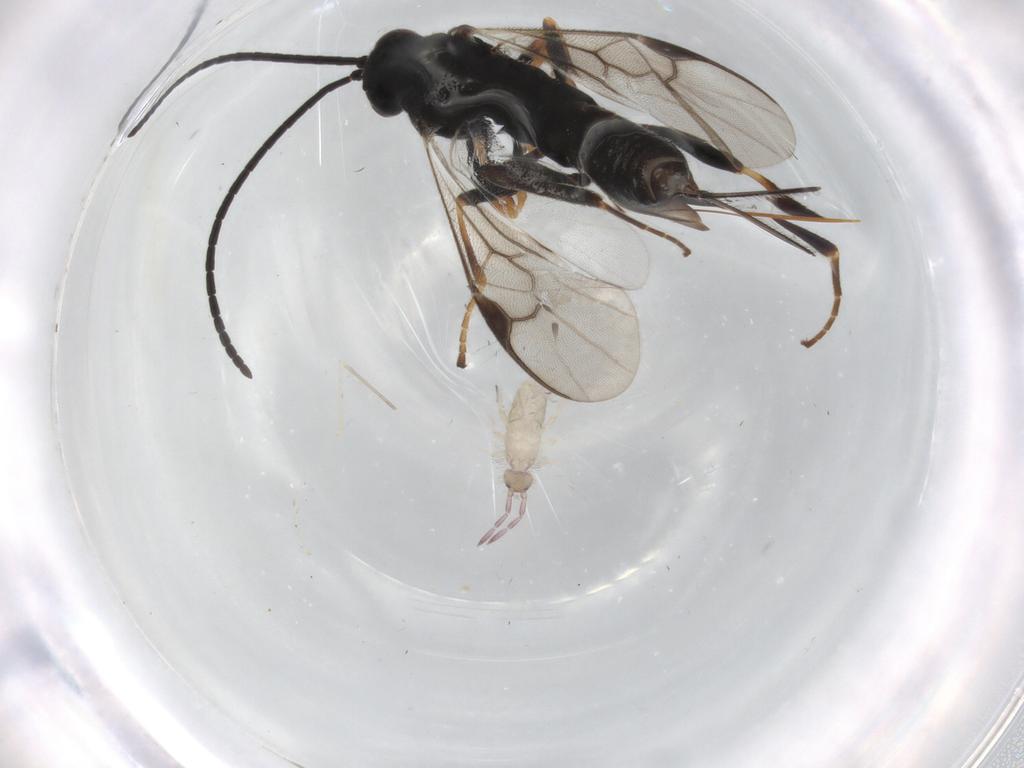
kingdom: Animalia
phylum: Arthropoda
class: Insecta
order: Hymenoptera
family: Braconidae
